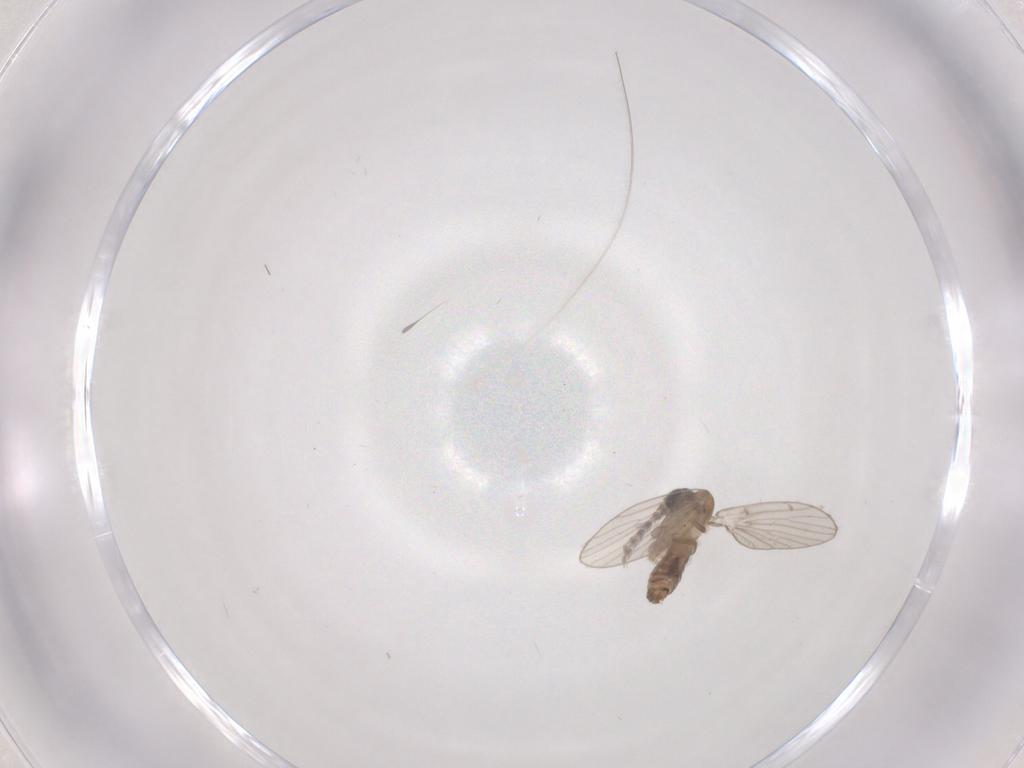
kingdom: Animalia
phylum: Arthropoda
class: Insecta
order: Diptera
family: Psychodidae
